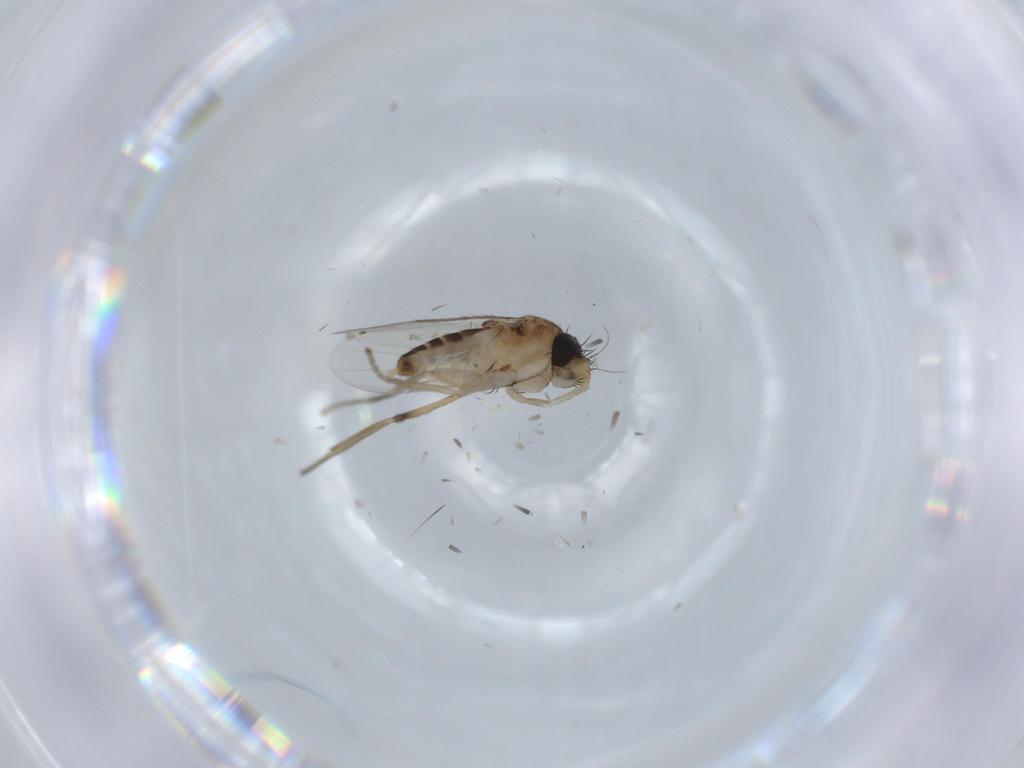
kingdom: Animalia
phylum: Arthropoda
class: Insecta
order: Diptera
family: Phoridae
